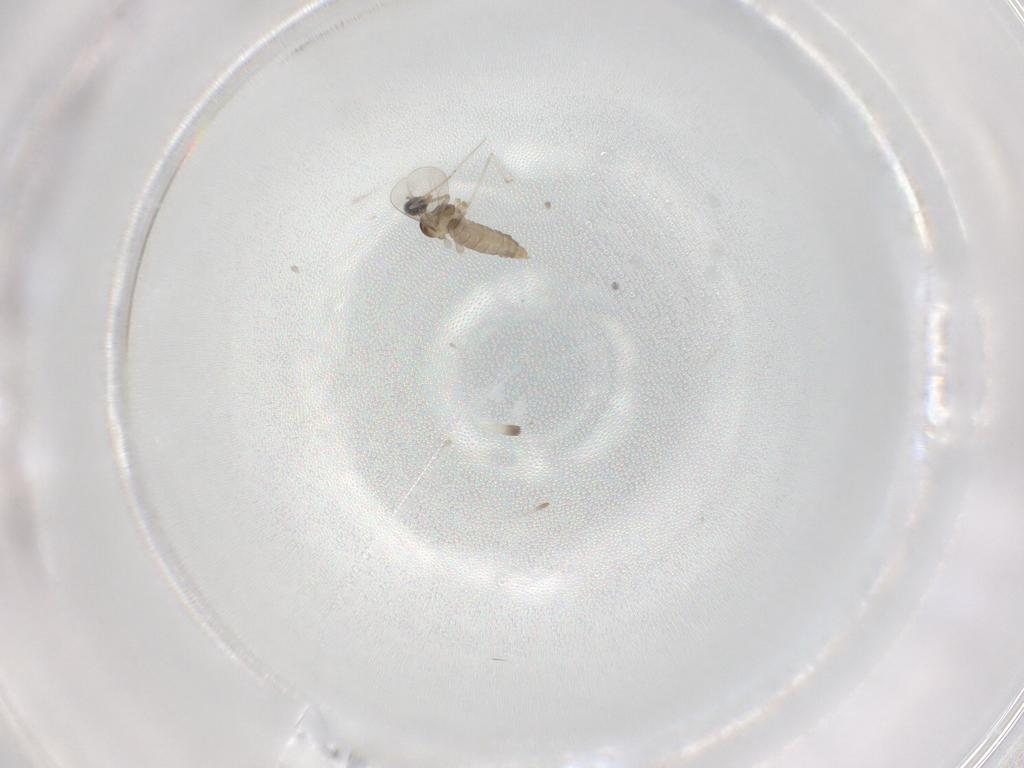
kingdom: Animalia
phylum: Arthropoda
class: Insecta
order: Diptera
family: Cecidomyiidae
